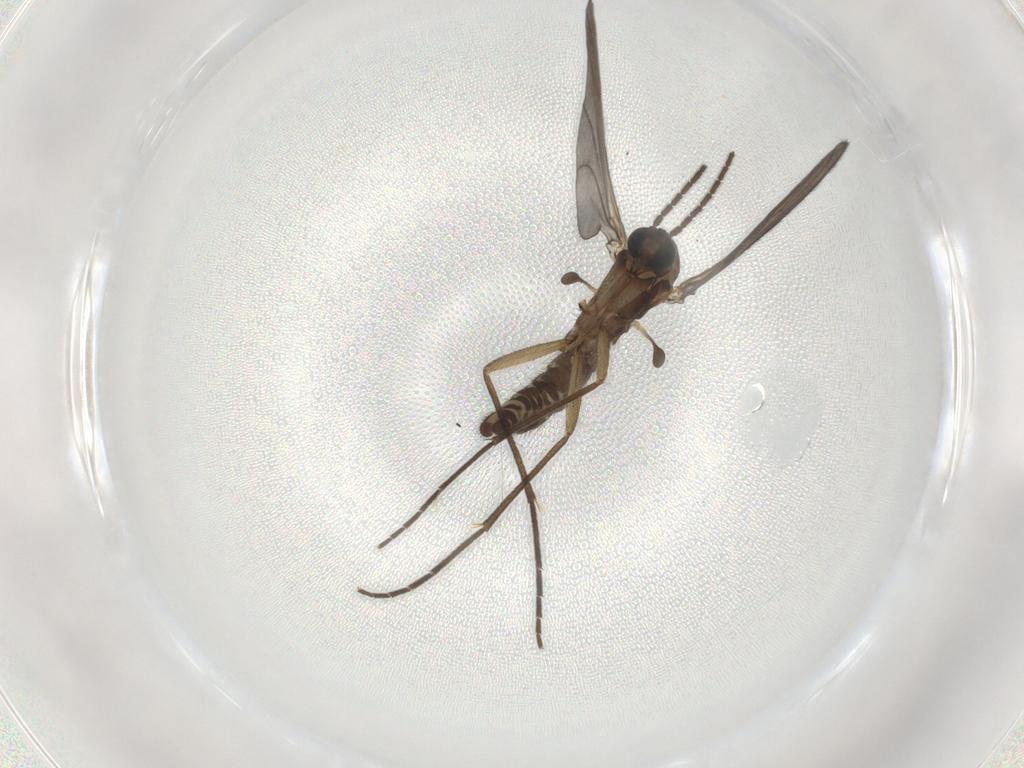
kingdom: Animalia
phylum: Arthropoda
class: Insecta
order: Diptera
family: Sciaridae
